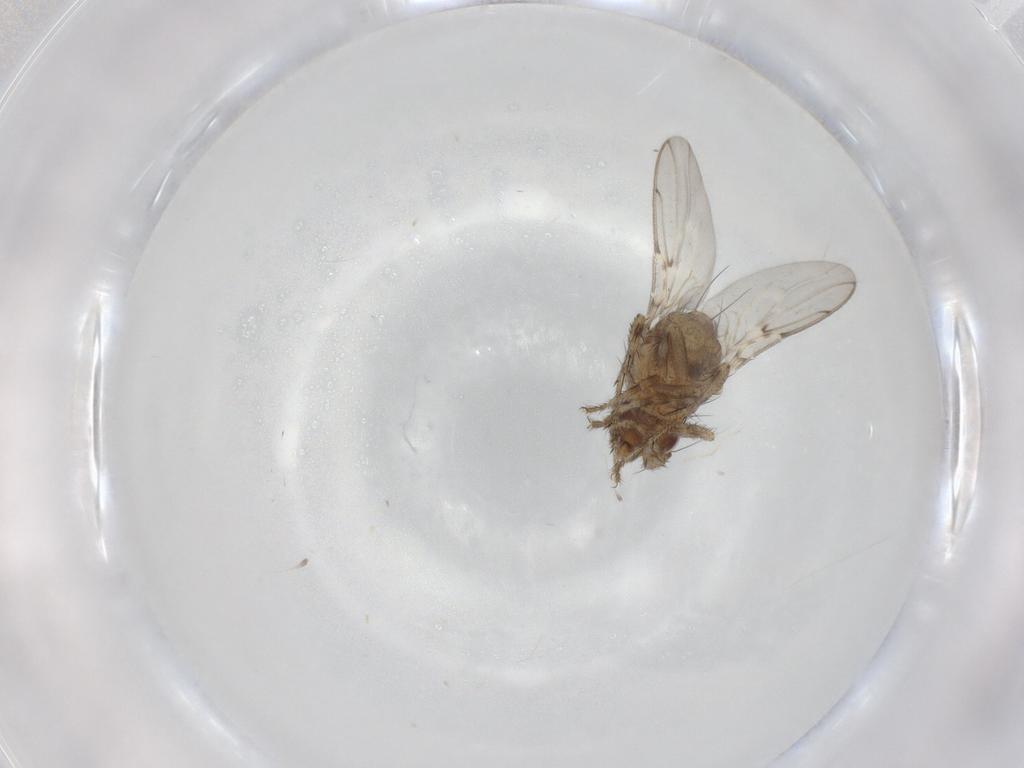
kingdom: Animalia
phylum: Arthropoda
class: Insecta
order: Diptera
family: Sphaeroceridae
